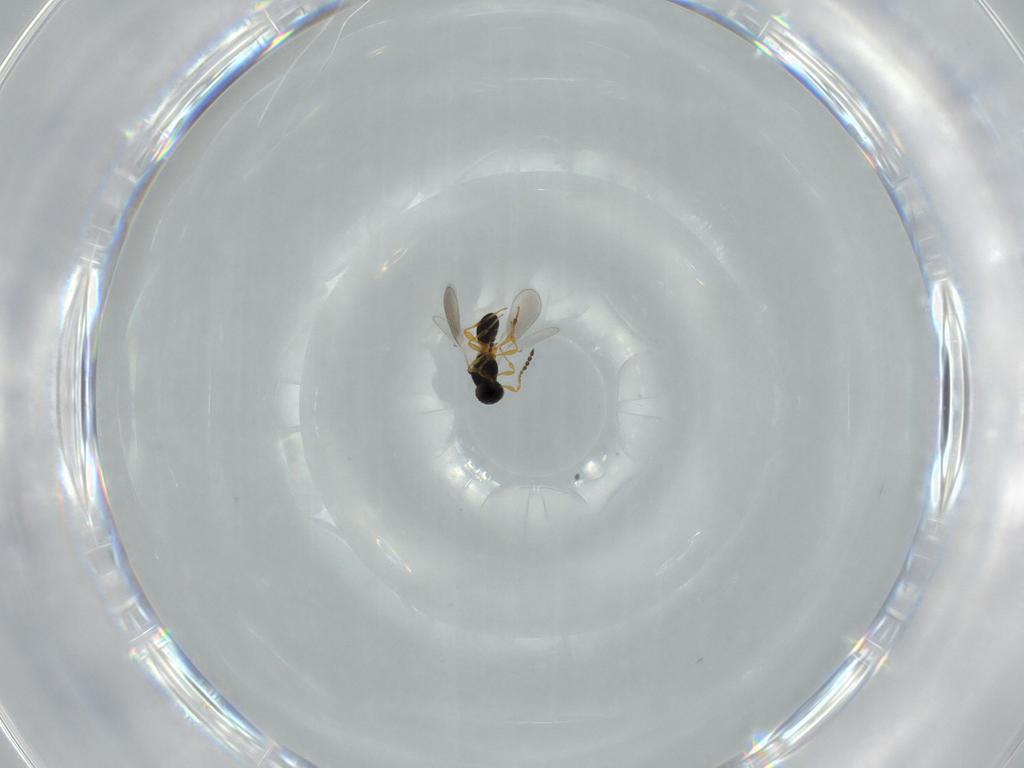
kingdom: Animalia
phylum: Arthropoda
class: Insecta
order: Hymenoptera
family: Platygastridae
